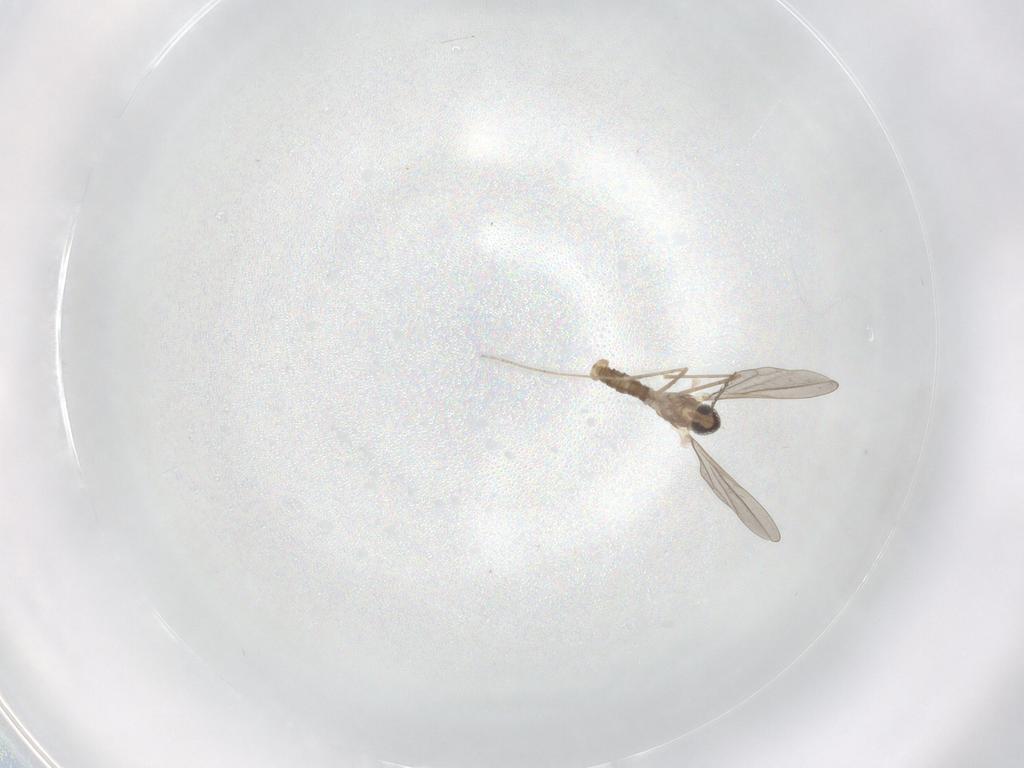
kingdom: Animalia
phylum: Arthropoda
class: Insecta
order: Diptera
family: Cecidomyiidae
